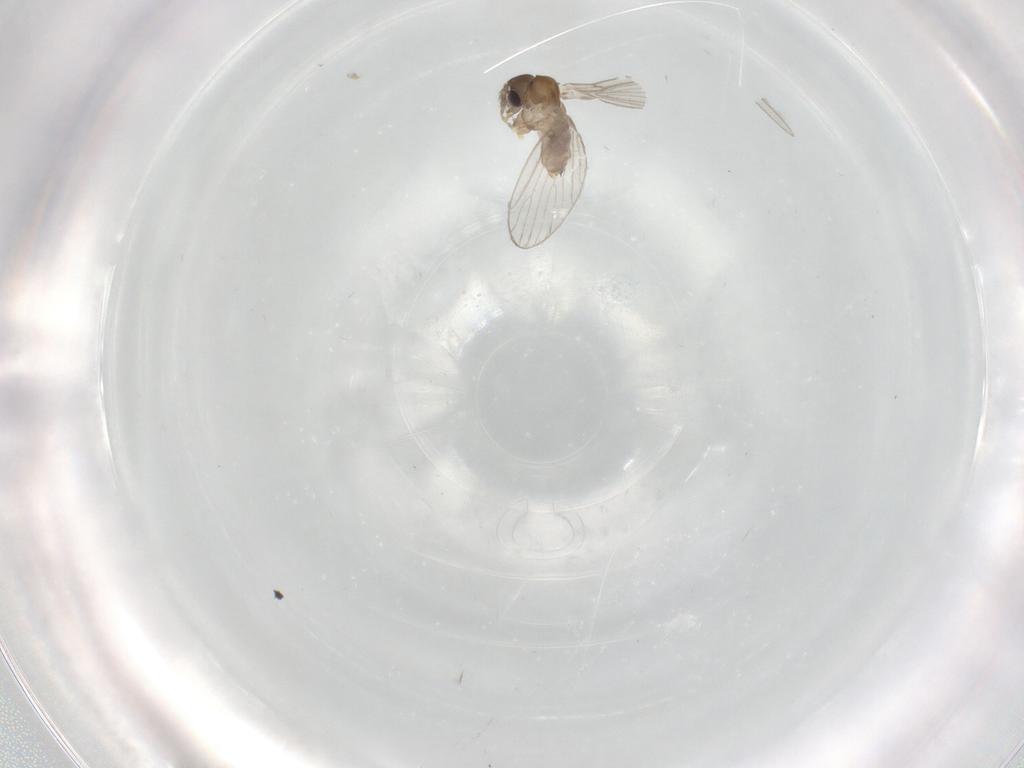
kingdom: Animalia
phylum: Arthropoda
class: Insecta
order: Diptera
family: Psychodidae
